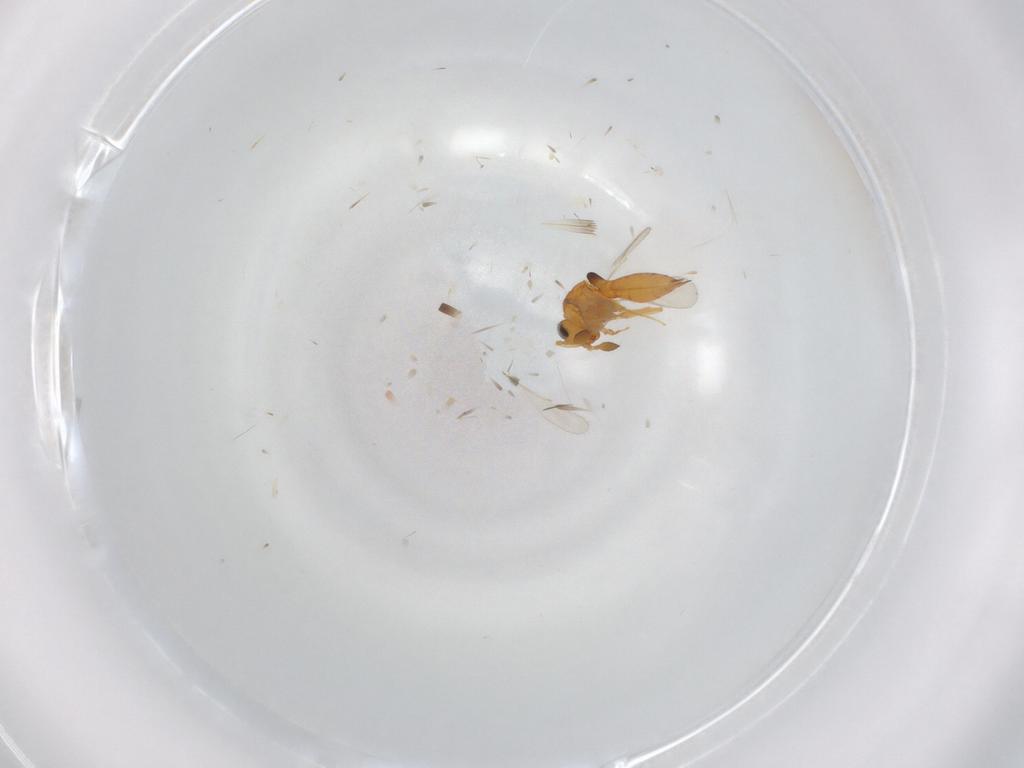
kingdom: Animalia
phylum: Arthropoda
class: Insecta
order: Hymenoptera
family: Scelionidae
